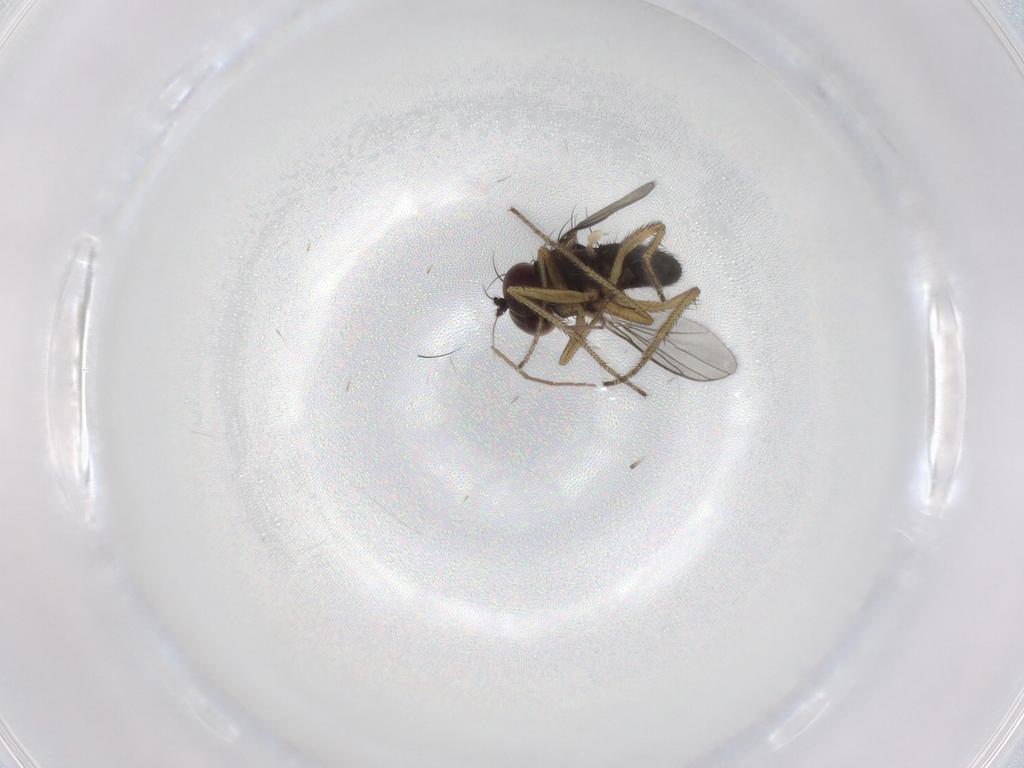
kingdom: Animalia
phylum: Arthropoda
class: Insecta
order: Diptera
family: Chironomidae
